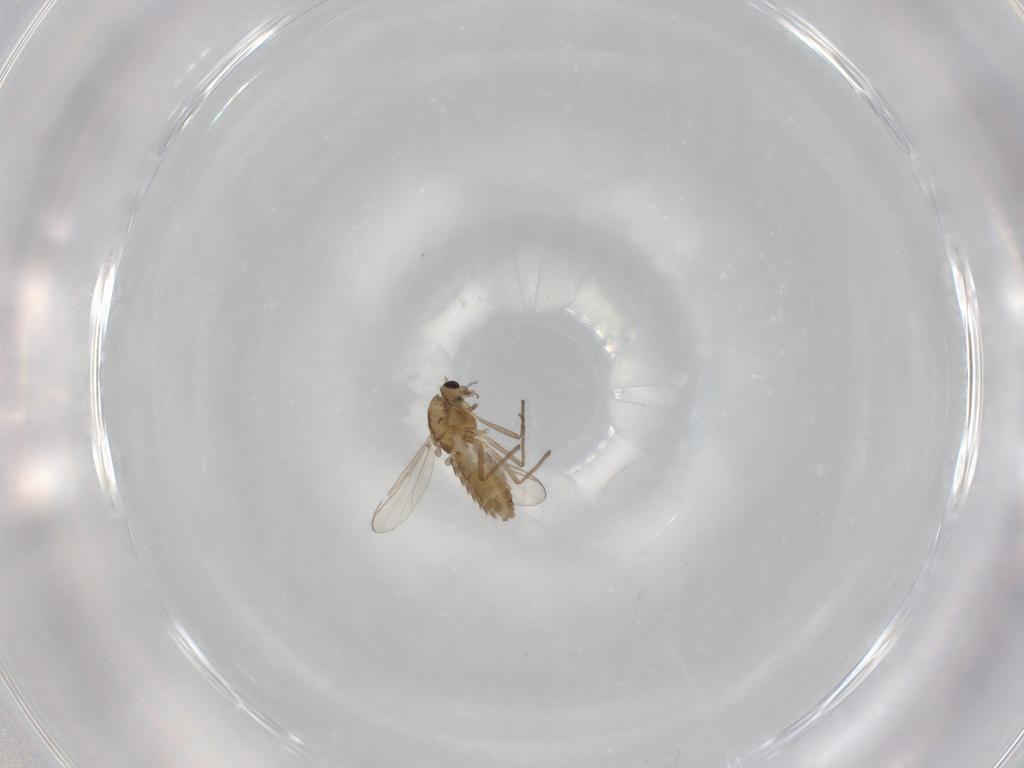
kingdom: Animalia
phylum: Arthropoda
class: Insecta
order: Diptera
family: Chironomidae
